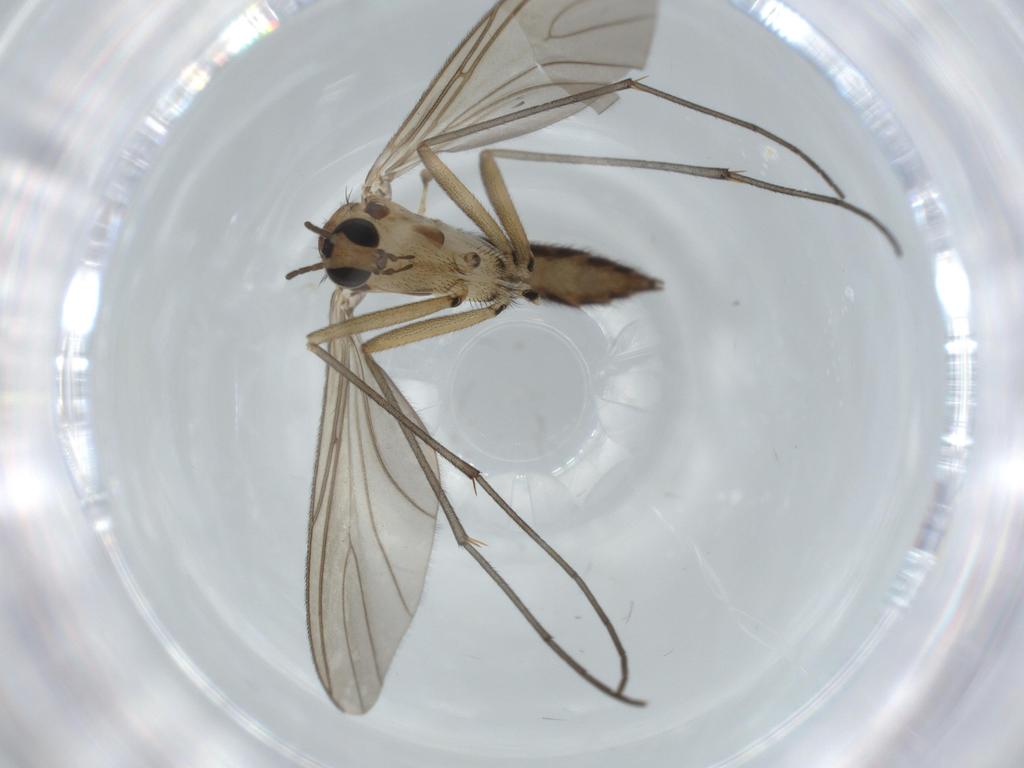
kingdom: Animalia
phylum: Arthropoda
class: Insecta
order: Diptera
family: Sciaridae
